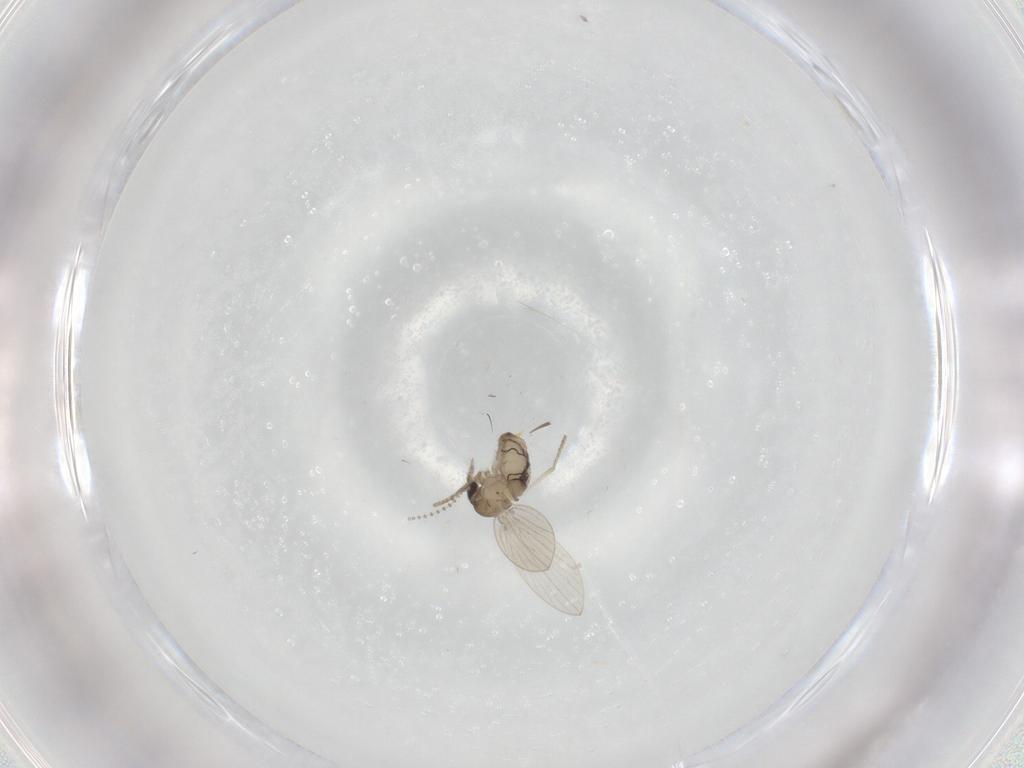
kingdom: Animalia
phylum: Arthropoda
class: Insecta
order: Diptera
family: Psychodidae
